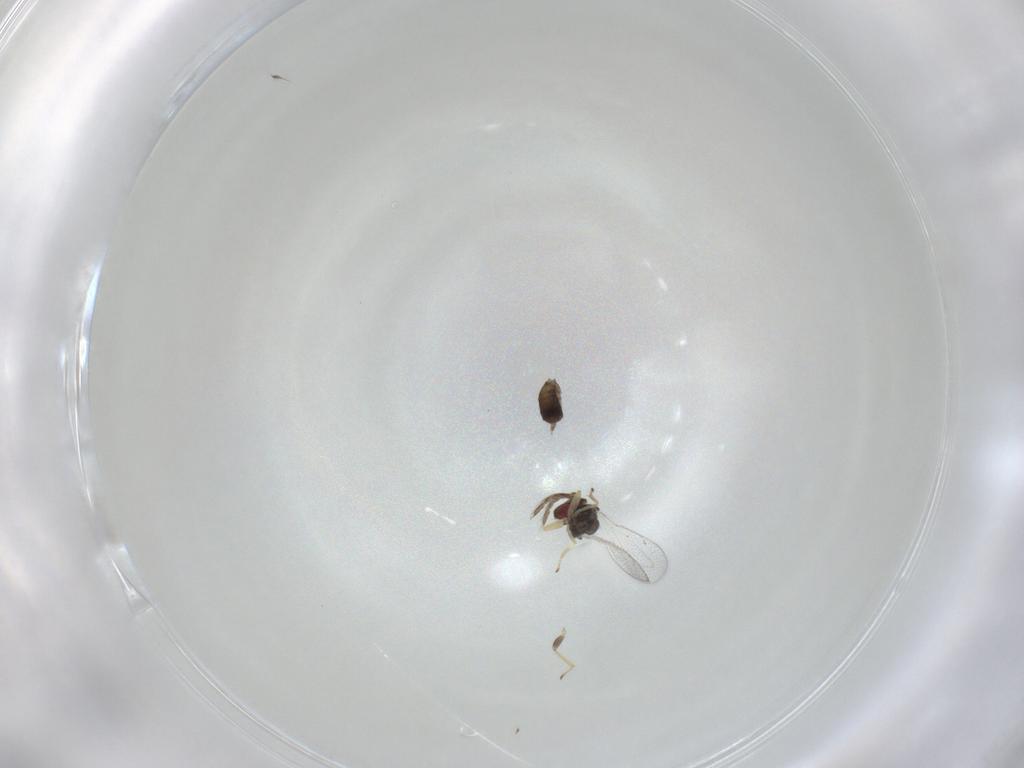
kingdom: Animalia
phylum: Arthropoda
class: Insecta
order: Hymenoptera
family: Eulophidae
